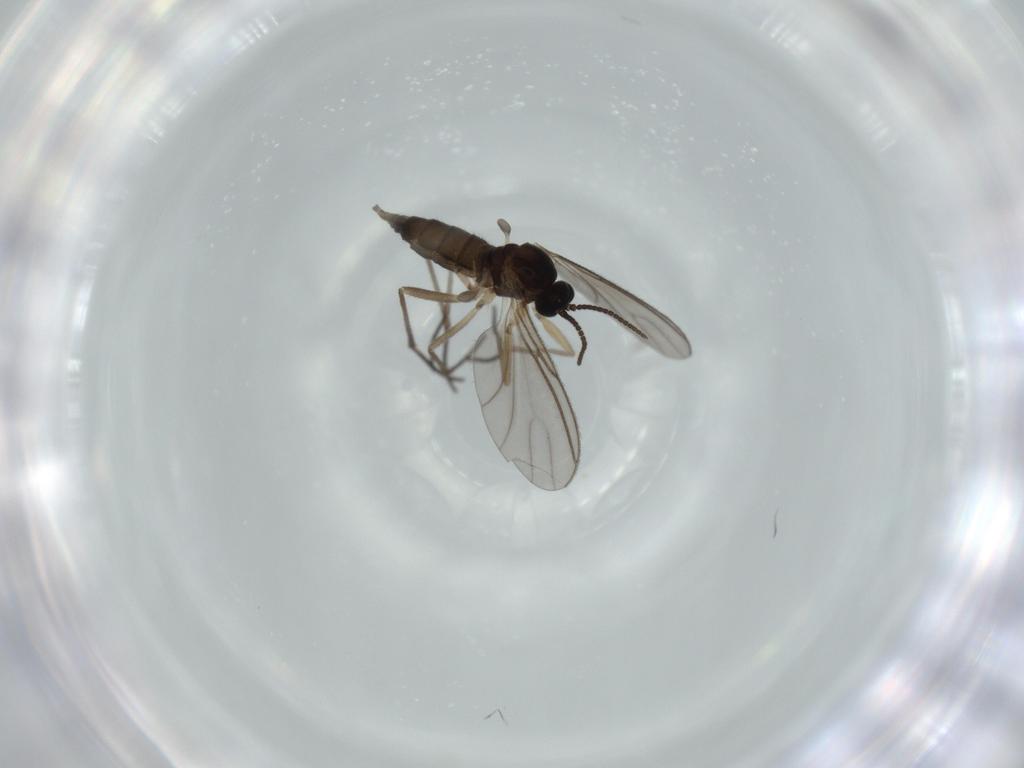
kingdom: Animalia
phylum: Arthropoda
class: Insecta
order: Diptera
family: Sciaridae
